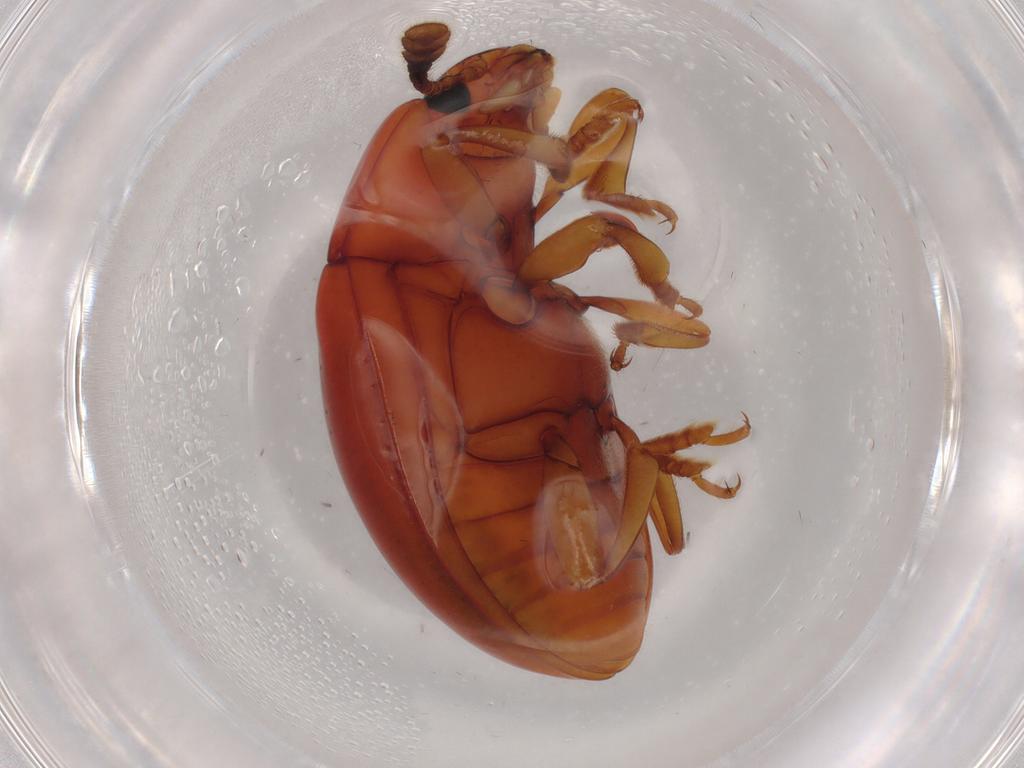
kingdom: Animalia
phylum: Arthropoda
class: Insecta
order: Coleoptera
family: Erotylidae
